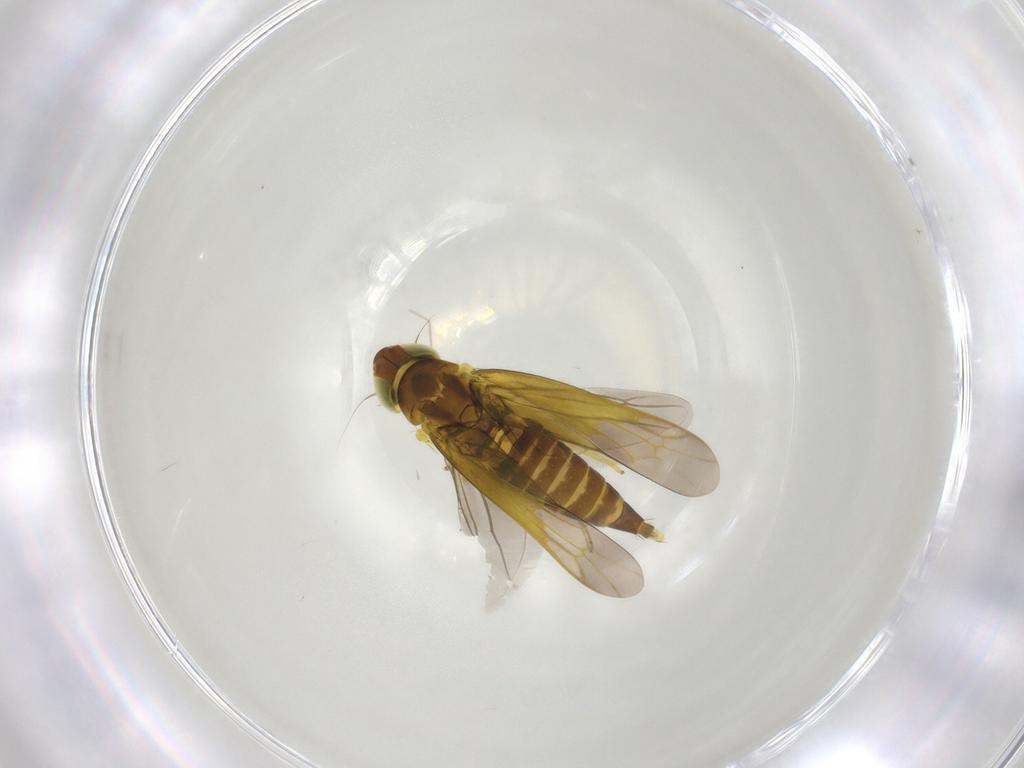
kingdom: Animalia
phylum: Arthropoda
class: Insecta
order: Hemiptera
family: Cicadellidae
